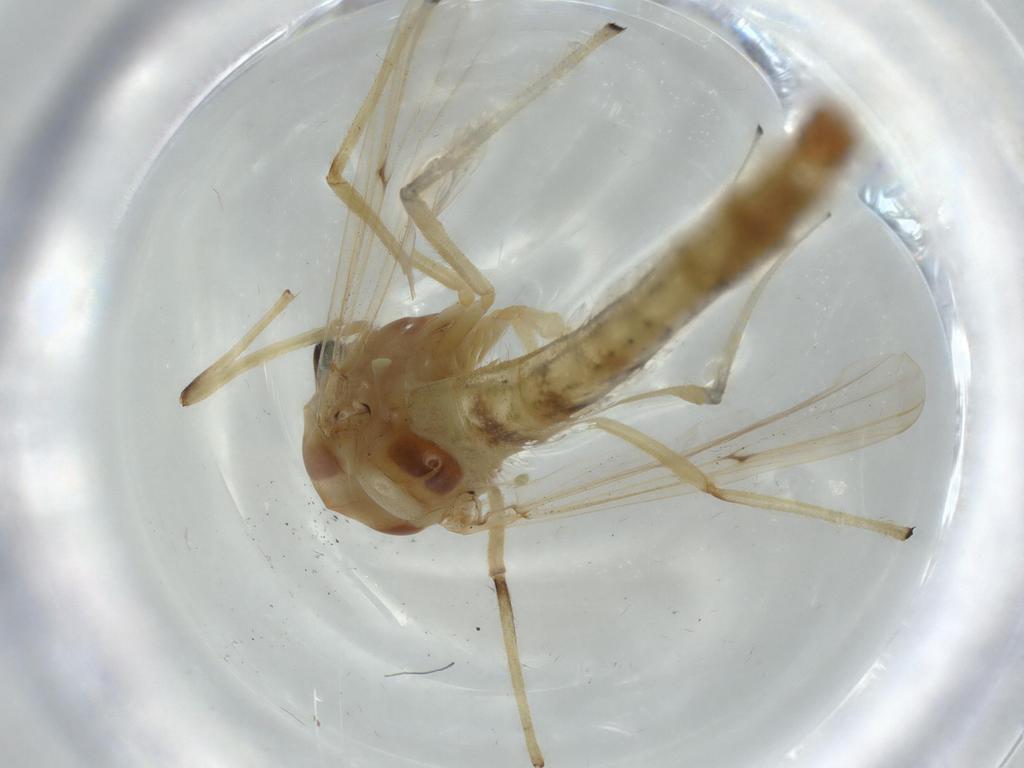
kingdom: Animalia
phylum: Arthropoda
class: Insecta
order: Diptera
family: Chironomidae
